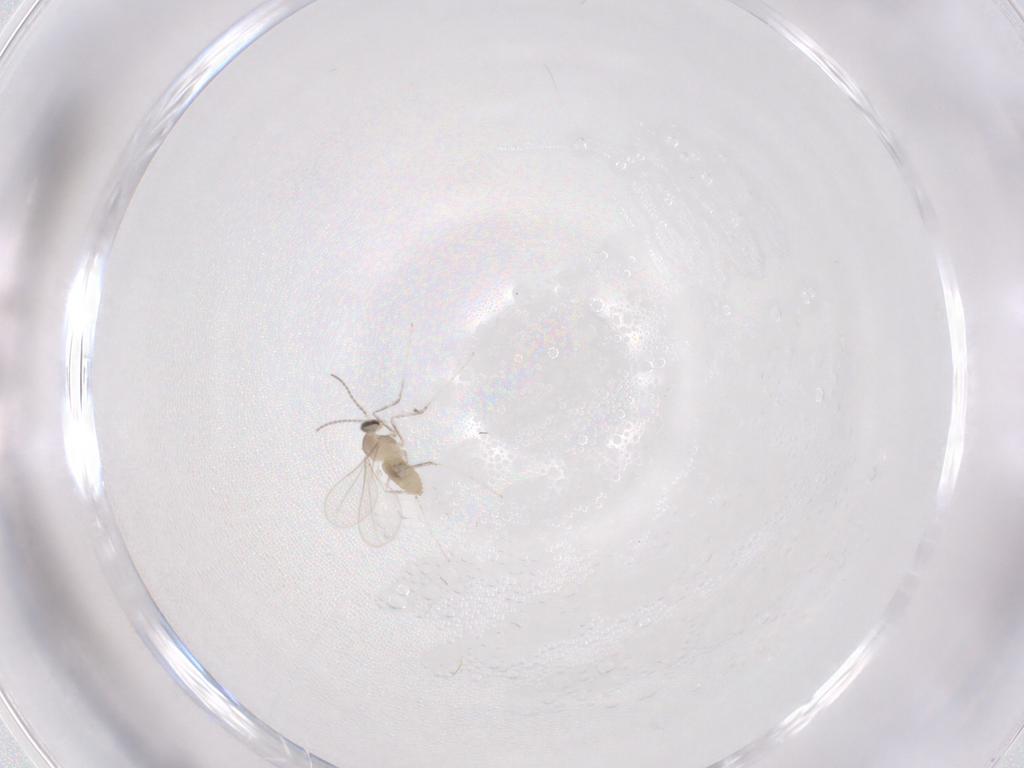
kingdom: Animalia
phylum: Arthropoda
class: Insecta
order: Diptera
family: Cecidomyiidae
